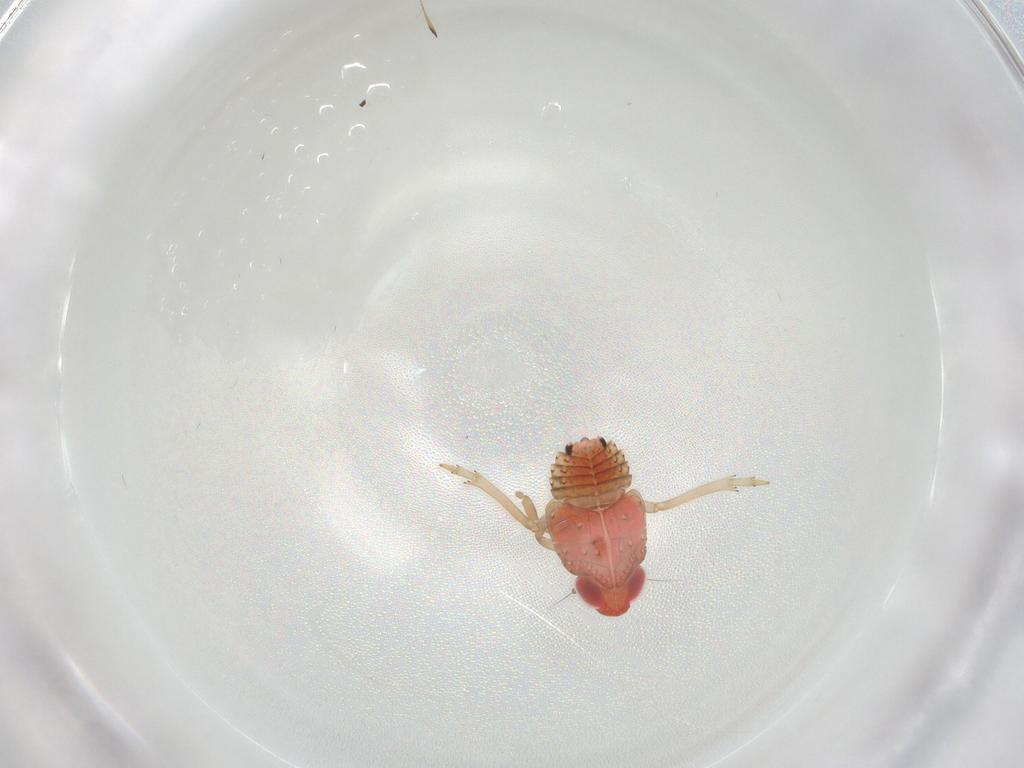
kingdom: Animalia
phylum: Arthropoda
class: Insecta
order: Hemiptera
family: Issidae
